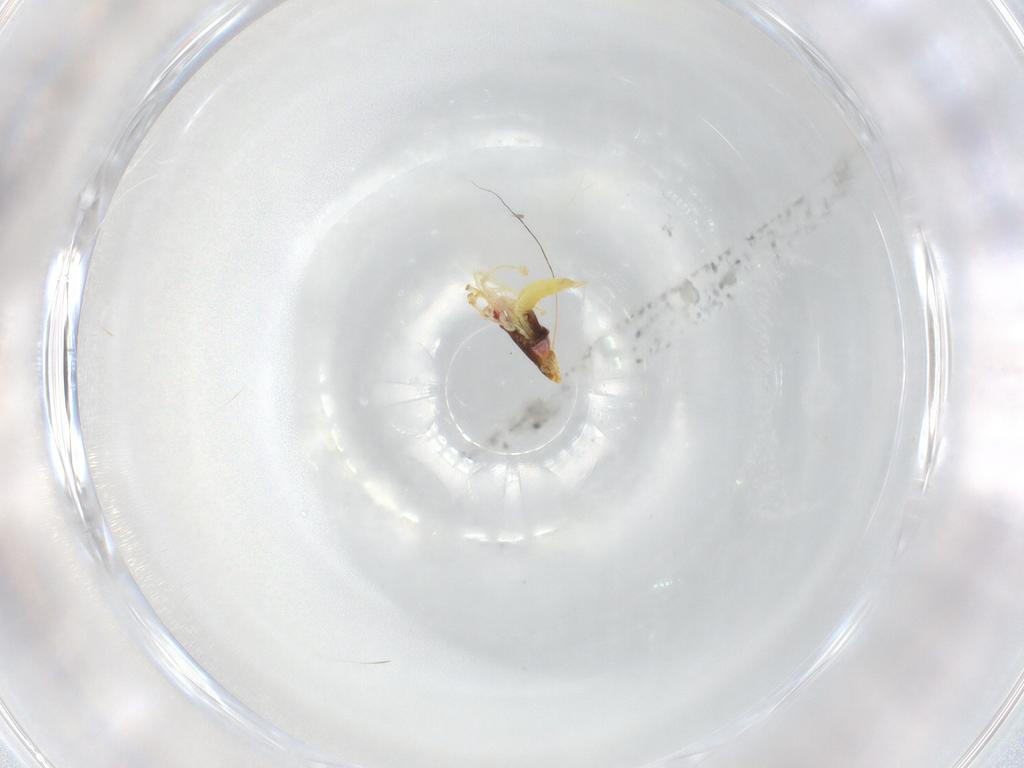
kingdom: Animalia
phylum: Arthropoda
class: Insecta
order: Hemiptera
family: Cicadellidae
